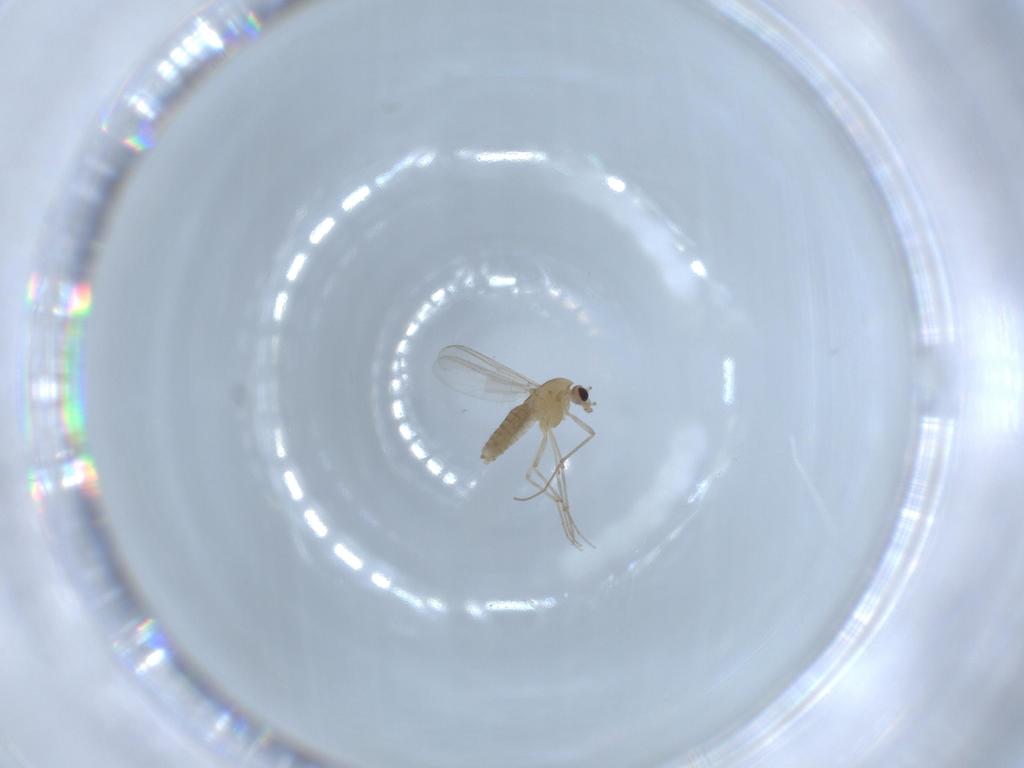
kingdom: Animalia
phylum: Arthropoda
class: Insecta
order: Diptera
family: Chironomidae
